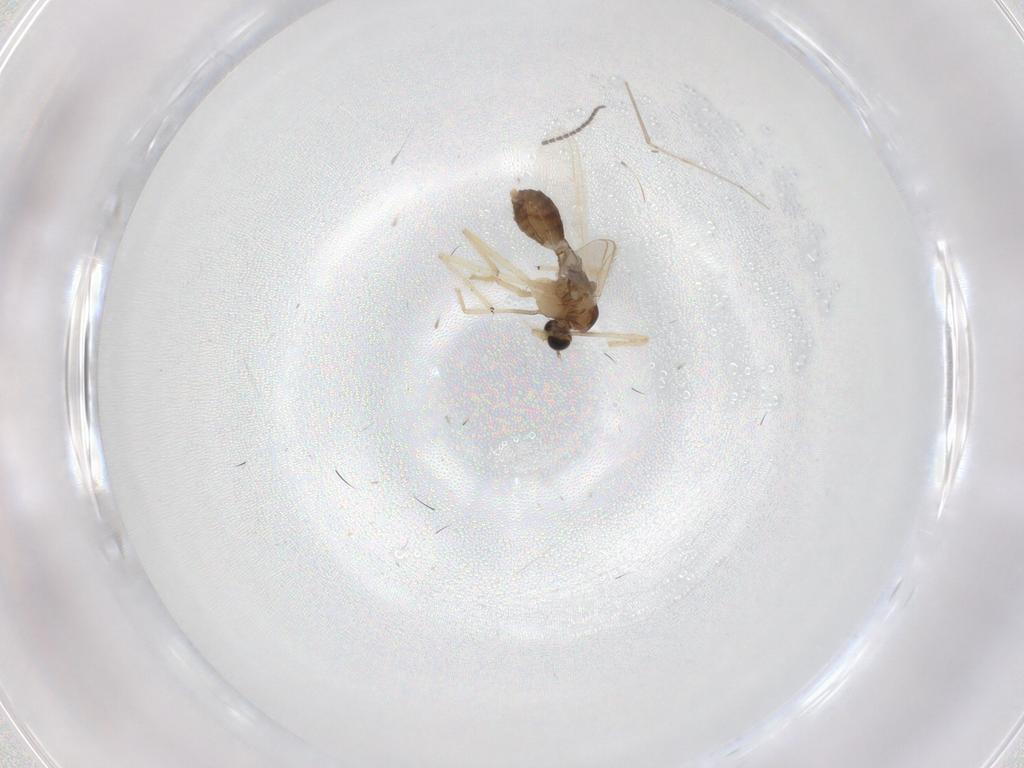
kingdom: Animalia
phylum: Arthropoda
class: Insecta
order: Diptera
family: Chironomidae
